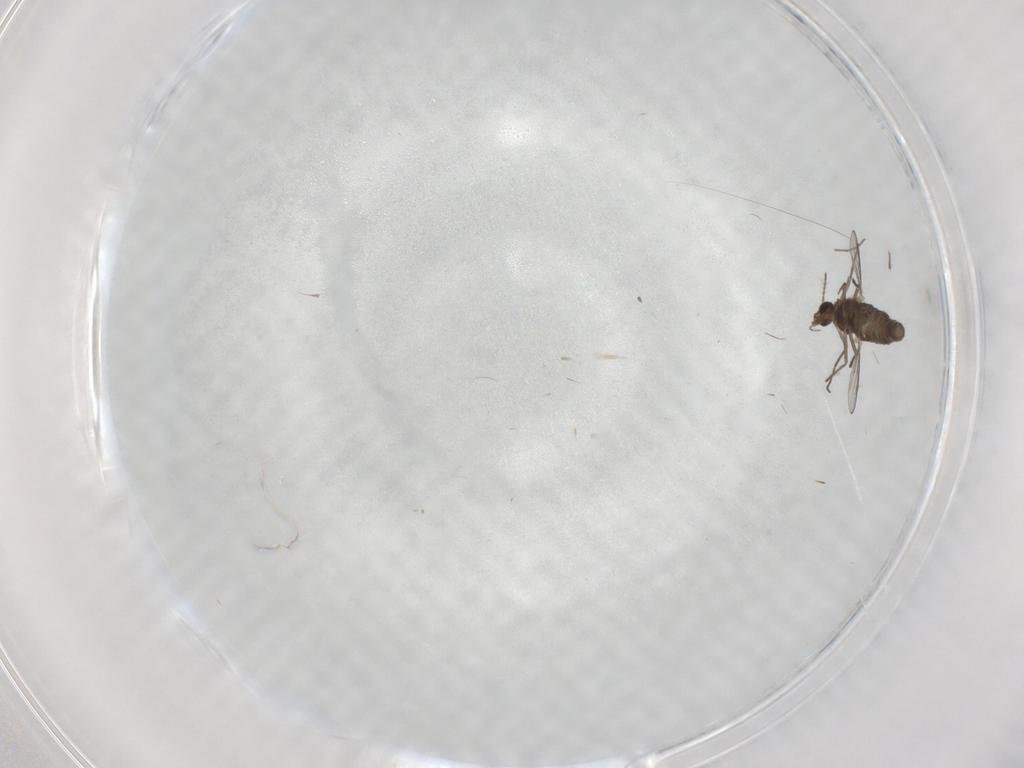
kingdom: Animalia
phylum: Arthropoda
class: Insecta
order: Diptera
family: Chironomidae
